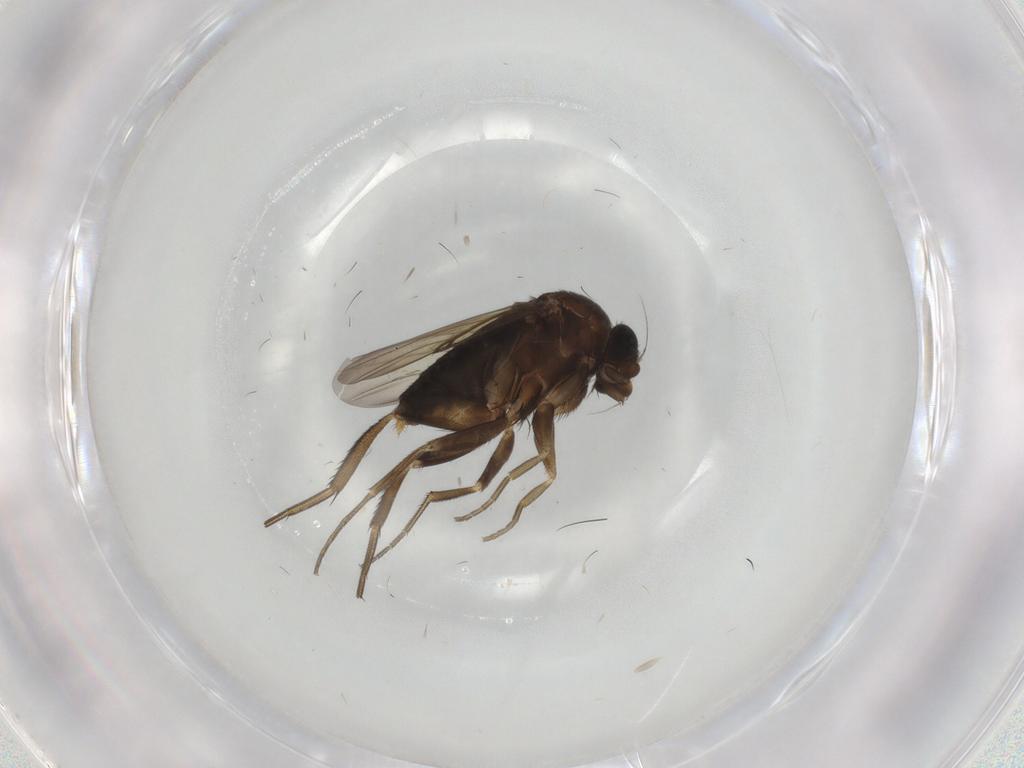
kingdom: Animalia
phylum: Arthropoda
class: Insecta
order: Diptera
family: Phoridae
